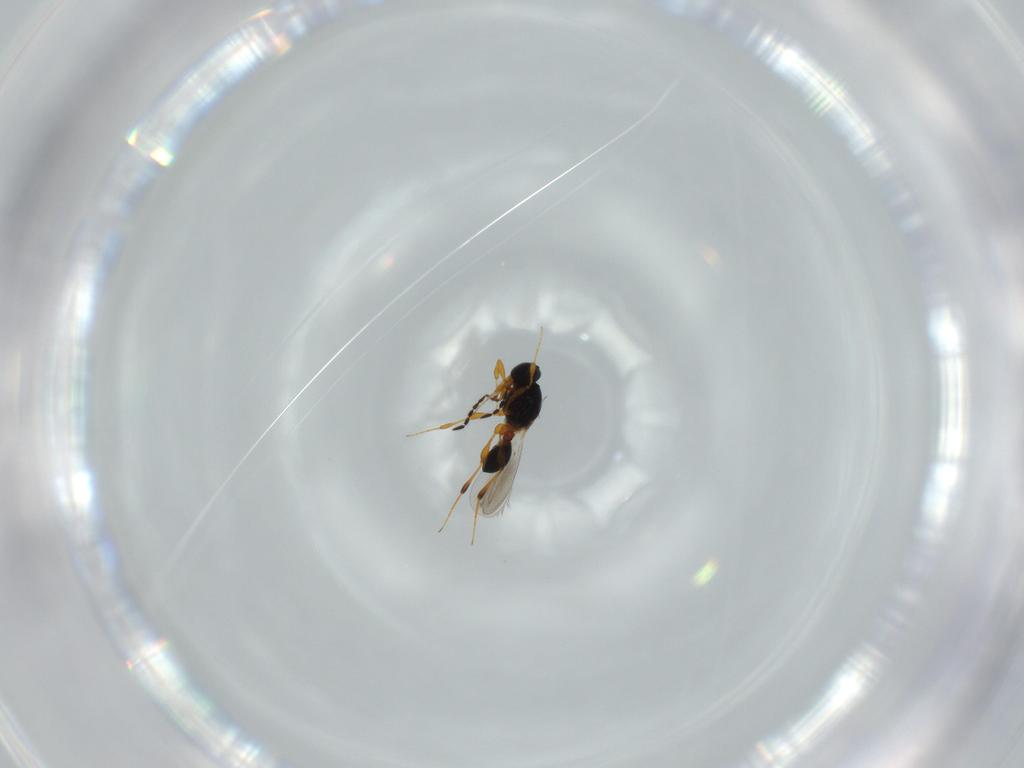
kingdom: Animalia
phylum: Arthropoda
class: Insecta
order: Hymenoptera
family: Platygastridae
